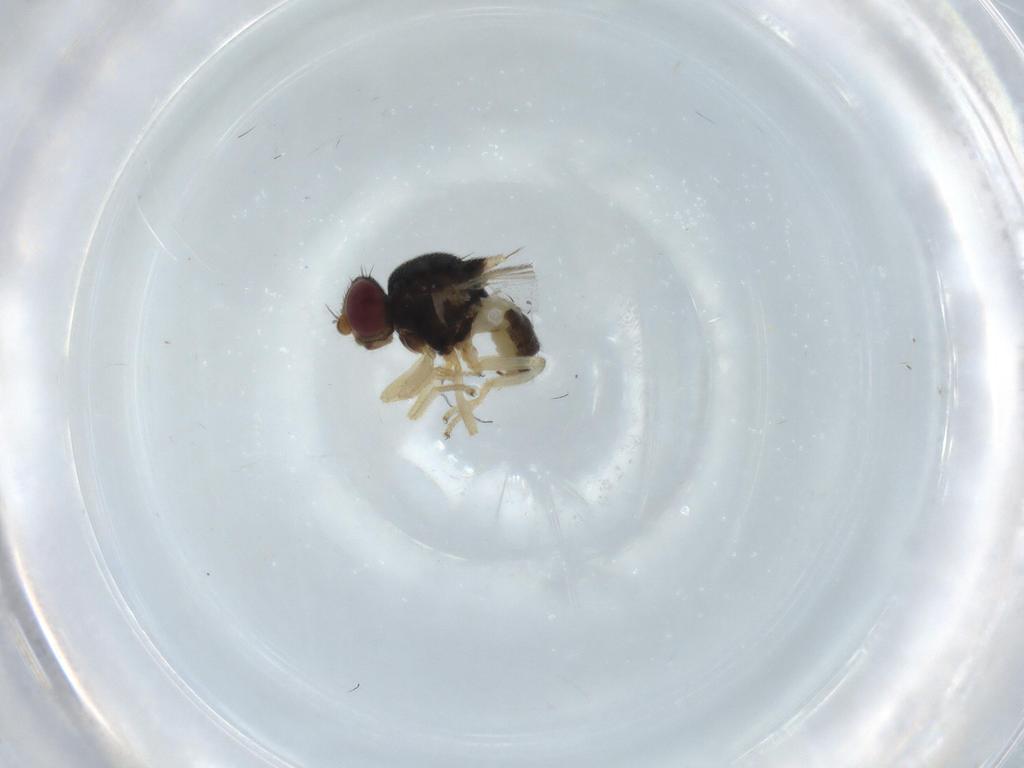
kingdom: Animalia
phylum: Arthropoda
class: Insecta
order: Diptera
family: Chloropidae
